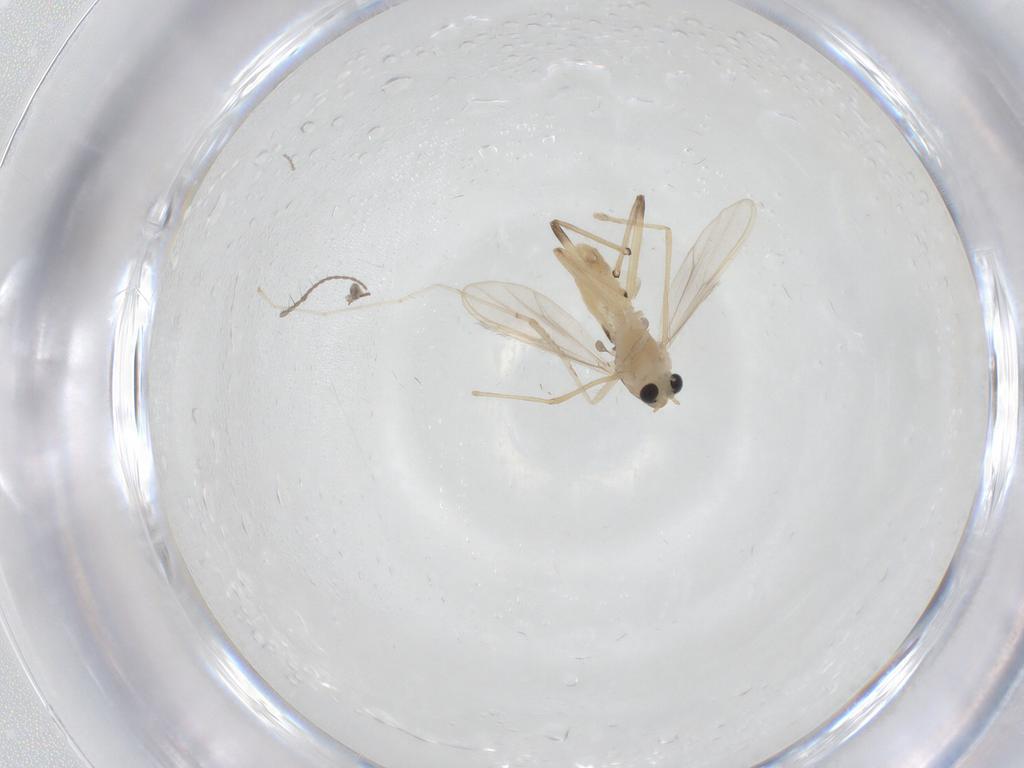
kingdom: Animalia
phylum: Arthropoda
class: Insecta
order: Diptera
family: Chironomidae
